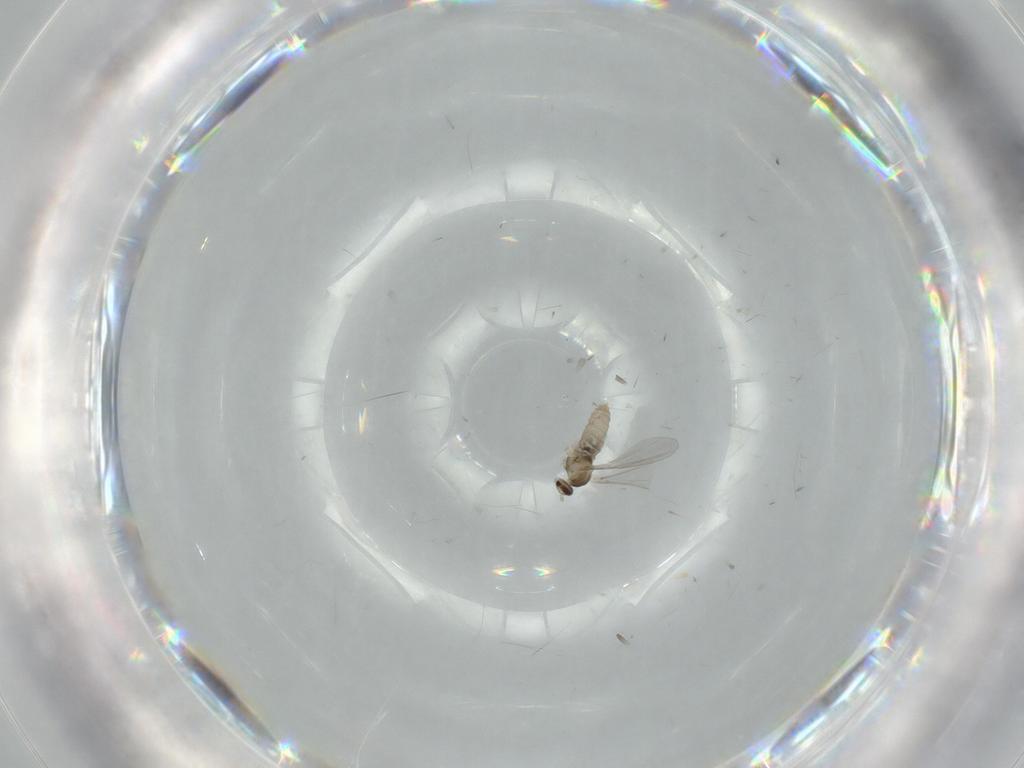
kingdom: Animalia
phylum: Arthropoda
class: Insecta
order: Diptera
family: Cecidomyiidae
